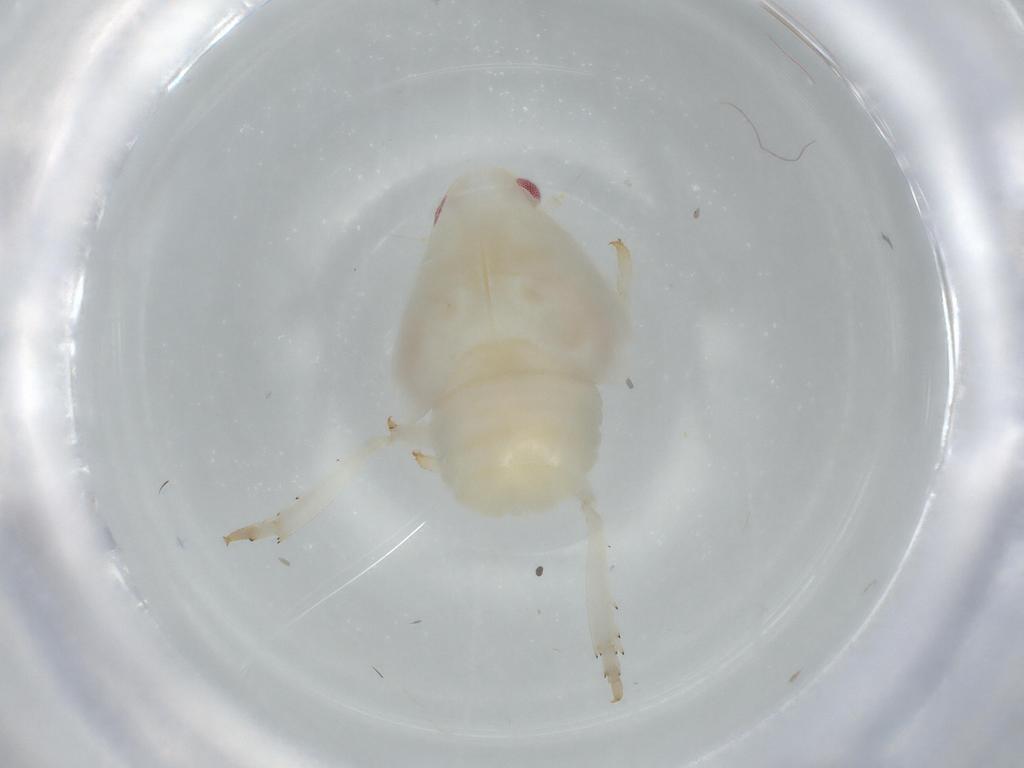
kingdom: Animalia
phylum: Arthropoda
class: Insecta
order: Hemiptera
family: Flatidae
